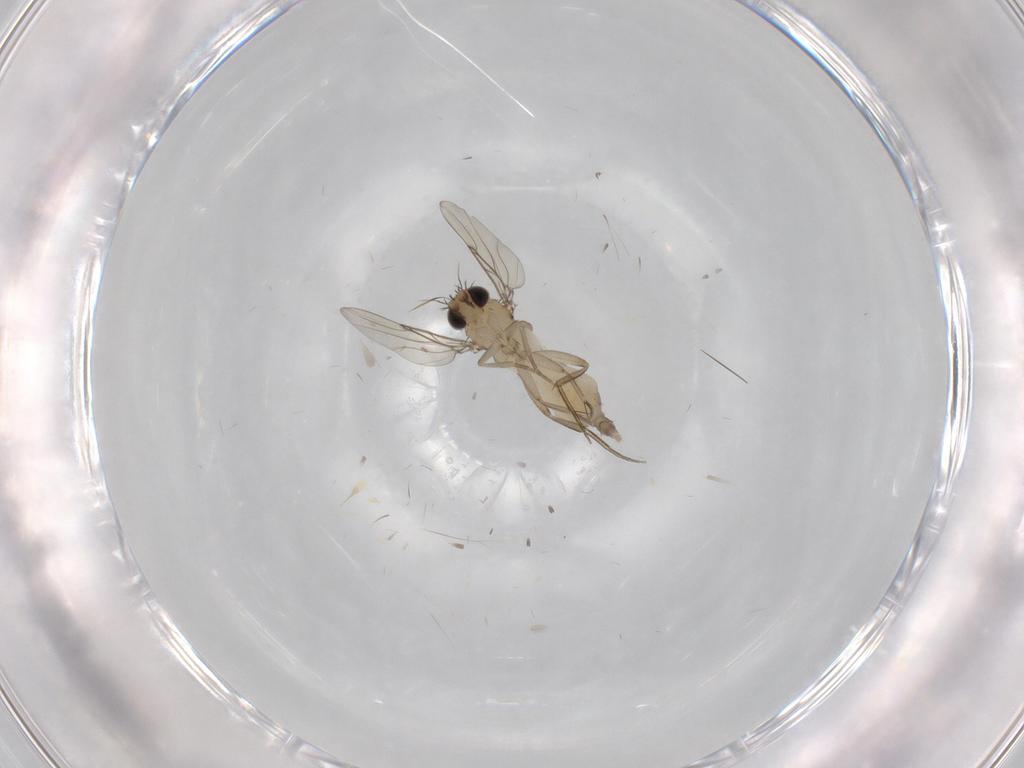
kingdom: Animalia
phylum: Arthropoda
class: Insecta
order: Diptera
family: Phoridae
